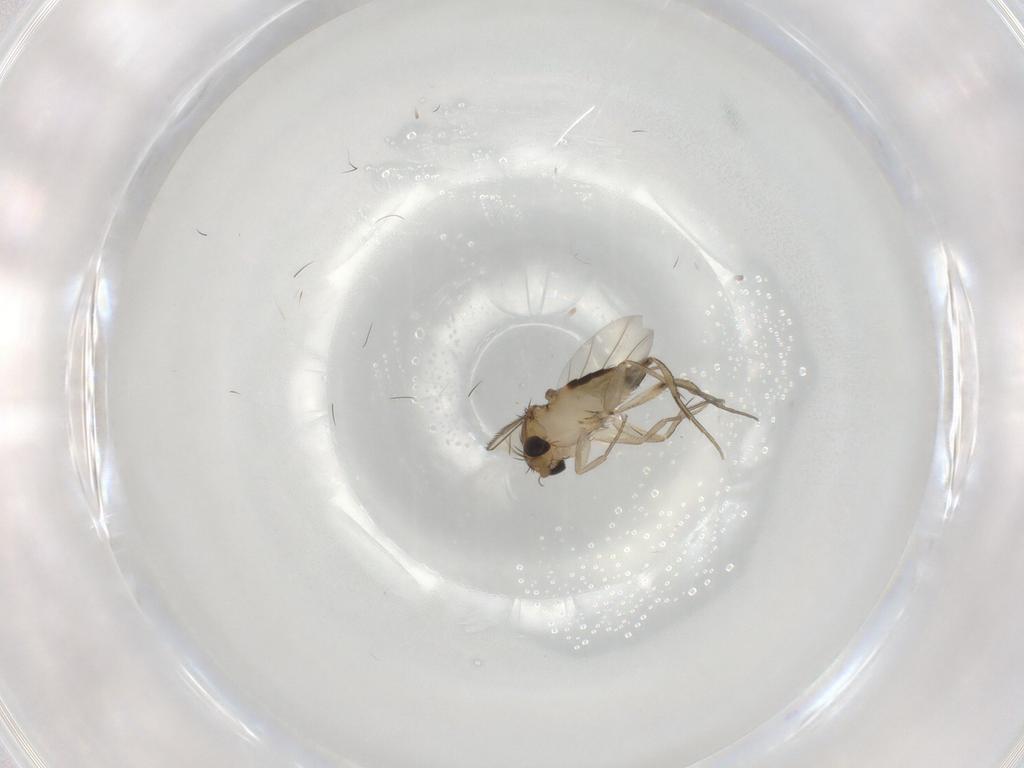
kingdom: Animalia
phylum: Arthropoda
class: Insecta
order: Diptera
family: Phoridae
